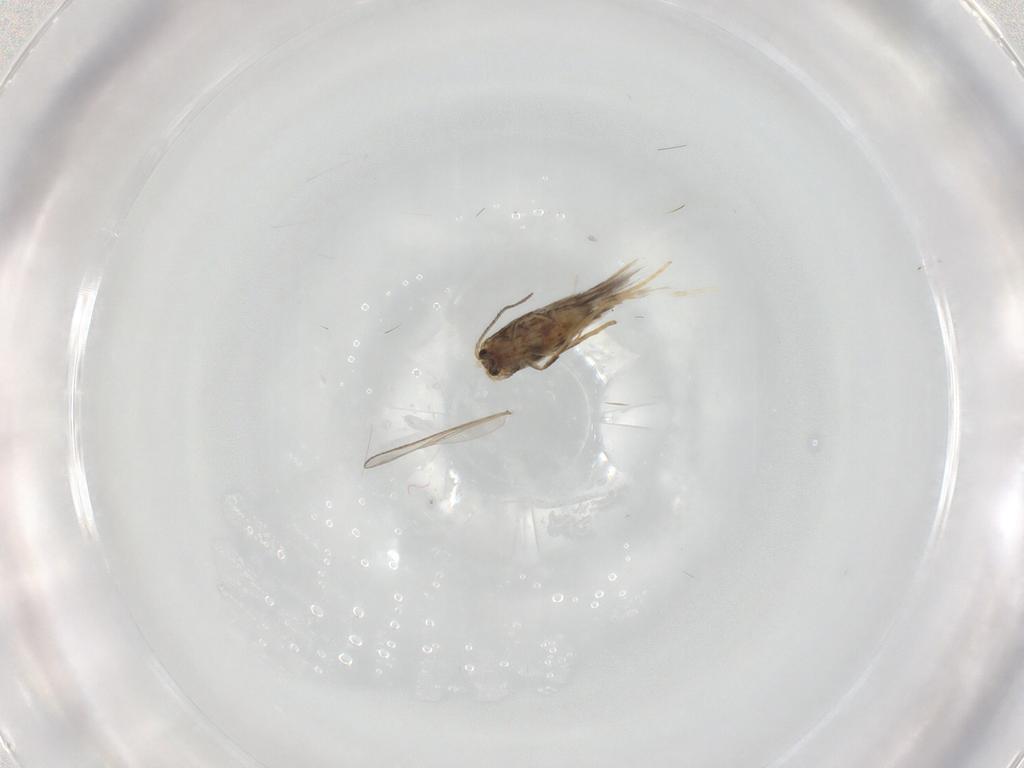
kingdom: Animalia
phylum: Arthropoda
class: Insecta
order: Lepidoptera
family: Nepticulidae
